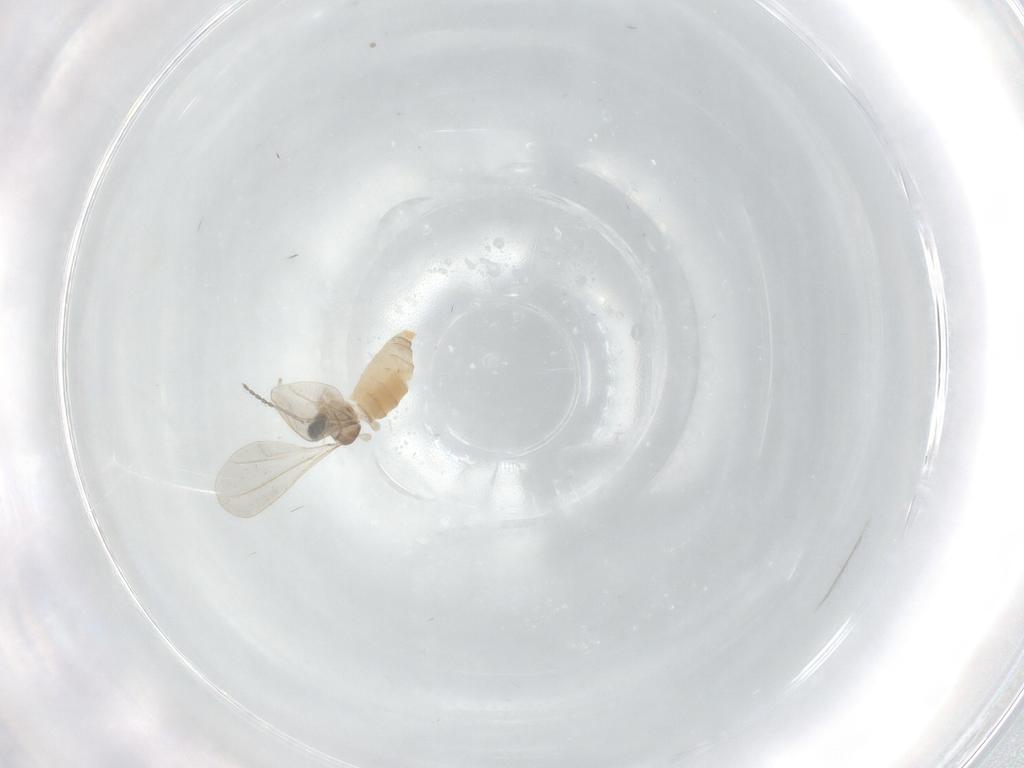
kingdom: Animalia
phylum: Arthropoda
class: Insecta
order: Diptera
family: Cecidomyiidae
